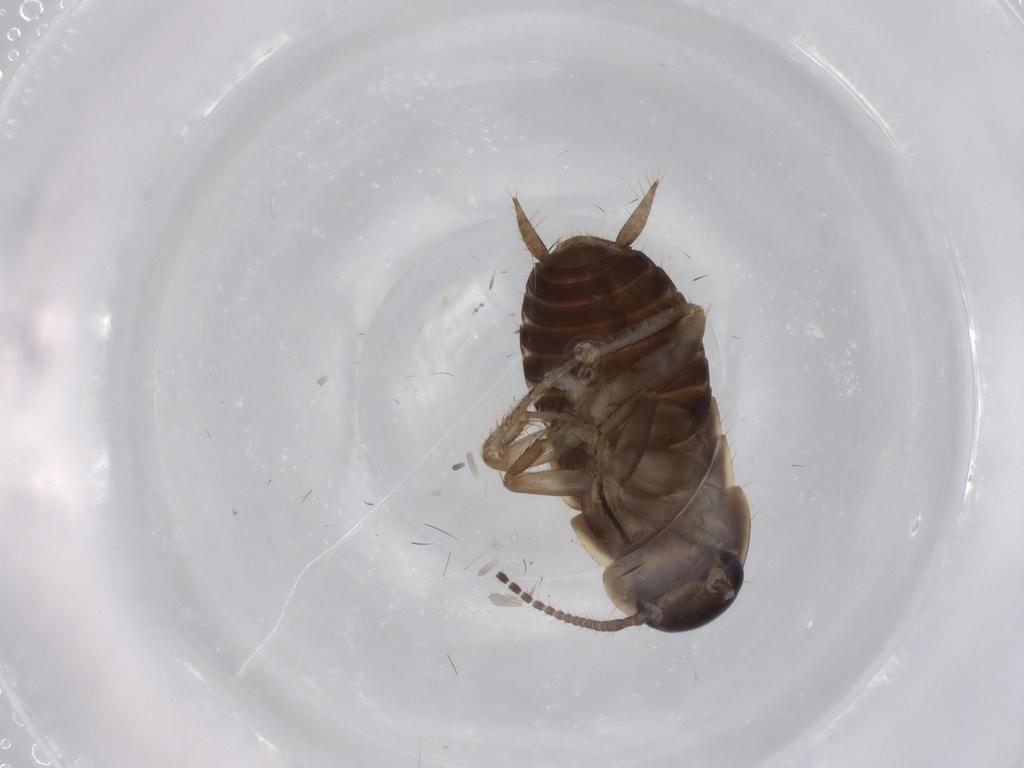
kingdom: Animalia
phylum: Arthropoda
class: Insecta
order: Blattodea
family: Ectobiidae
